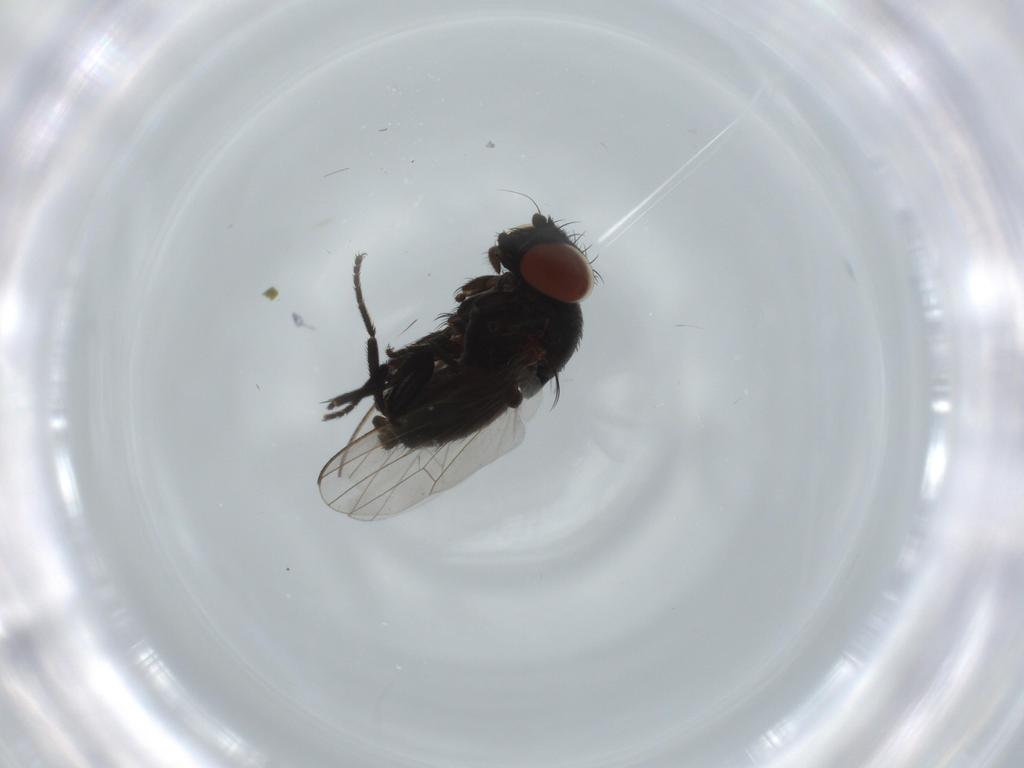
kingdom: Animalia
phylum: Arthropoda
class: Insecta
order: Diptera
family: Milichiidae
